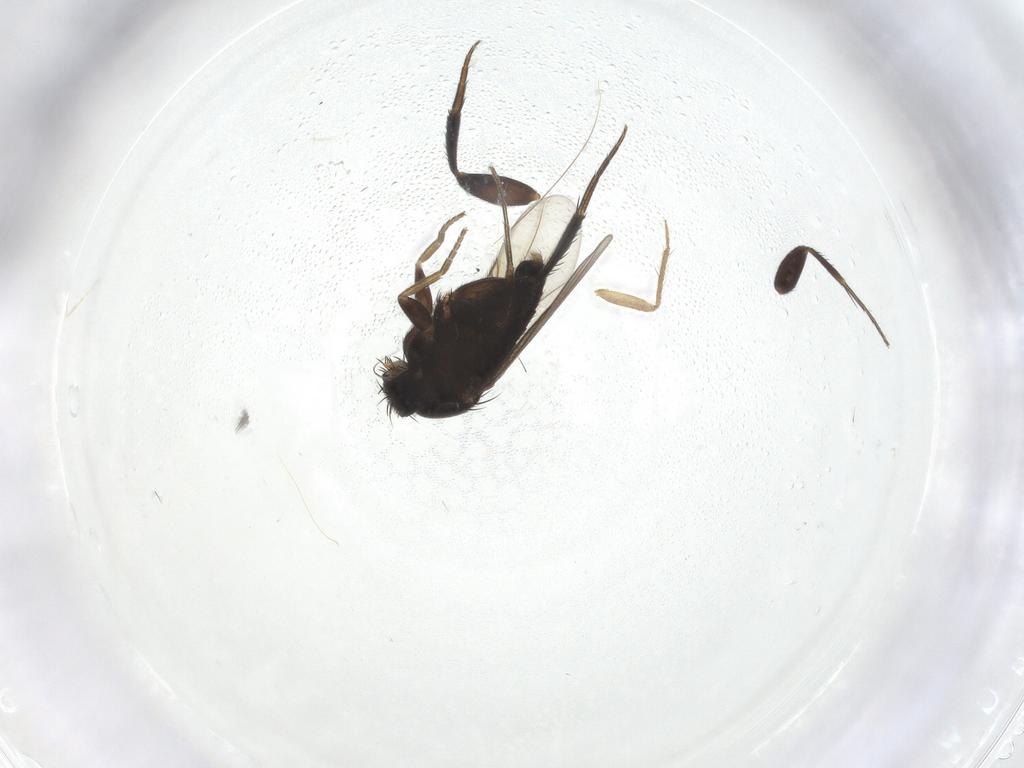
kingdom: Animalia
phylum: Arthropoda
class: Insecta
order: Diptera
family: Phoridae
